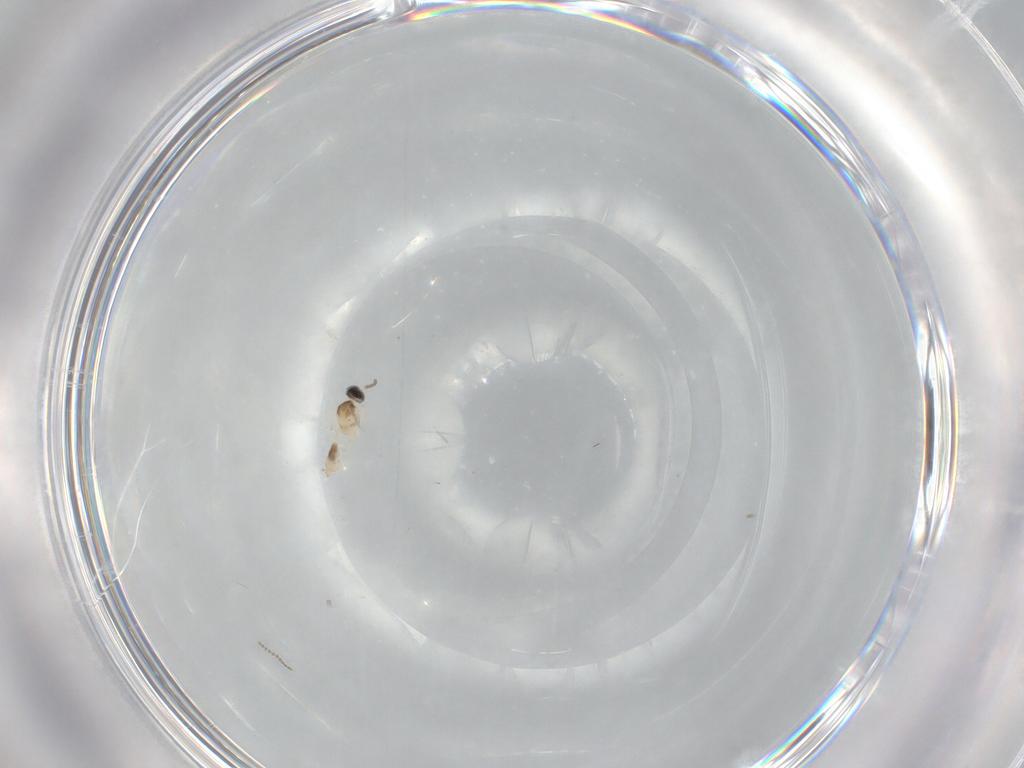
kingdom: Animalia
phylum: Arthropoda
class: Insecta
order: Diptera
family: Cecidomyiidae
